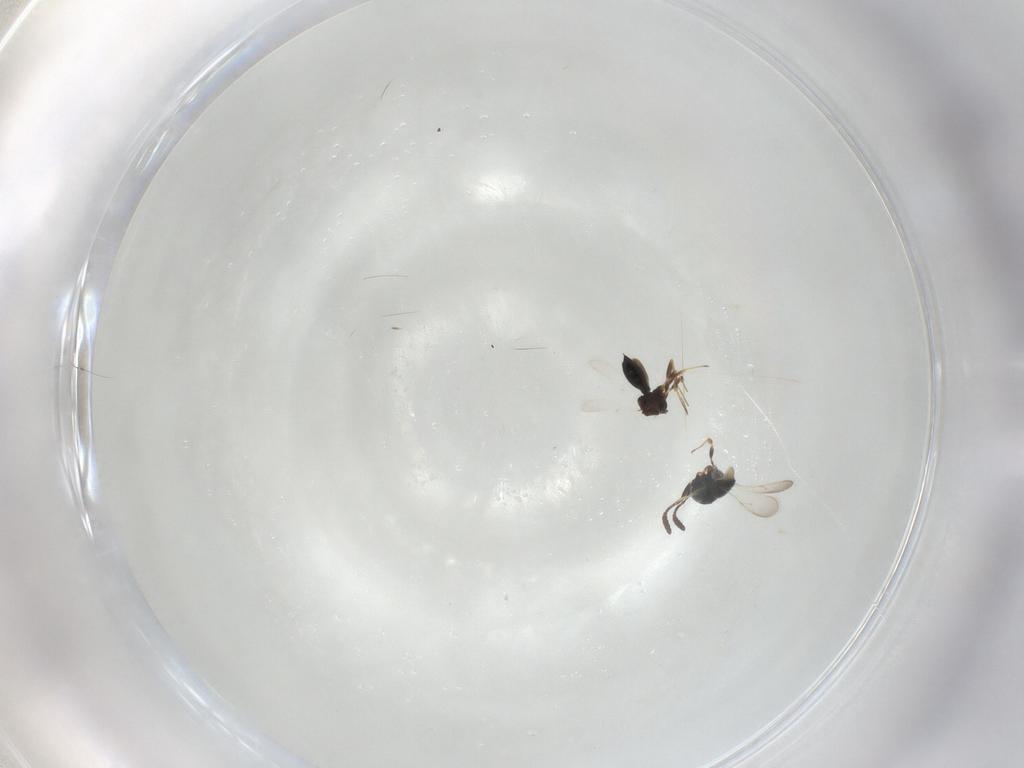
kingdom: Animalia
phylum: Arthropoda
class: Insecta
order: Hymenoptera
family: Scelionidae
